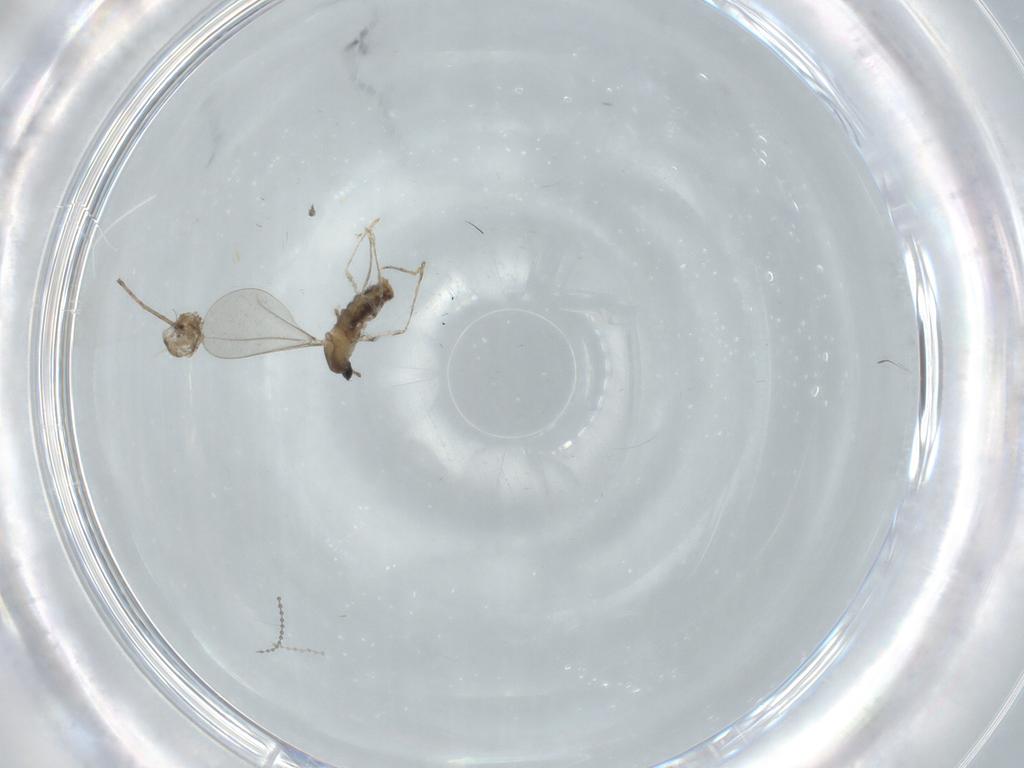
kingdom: Animalia
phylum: Arthropoda
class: Insecta
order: Diptera
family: Cecidomyiidae
